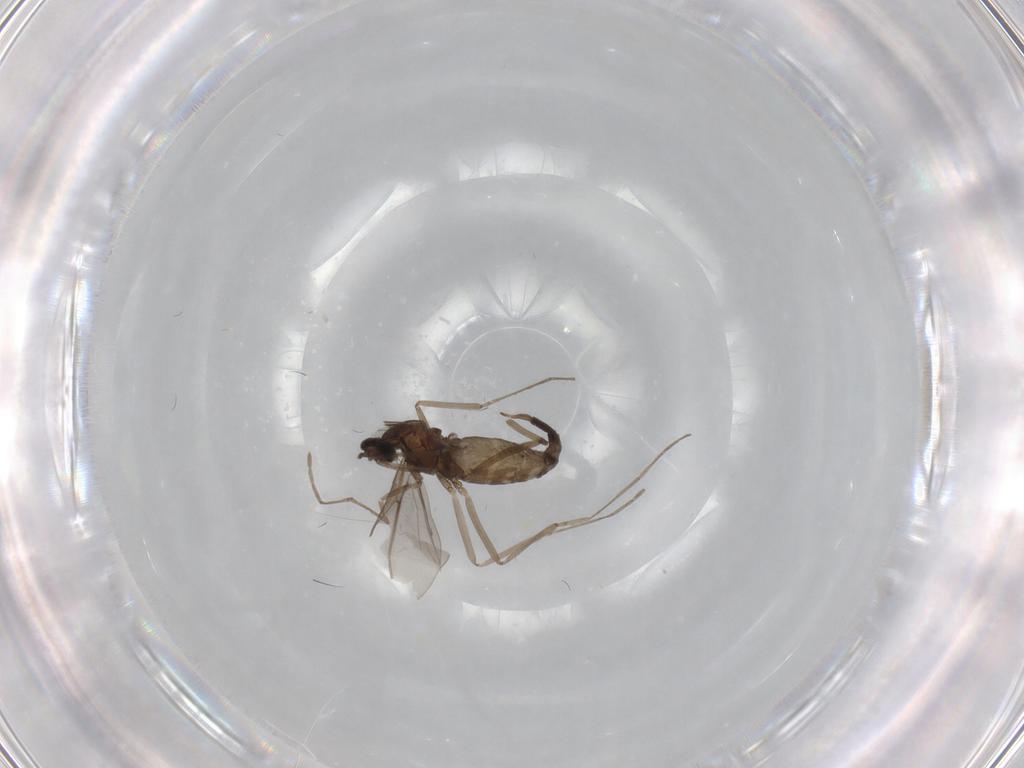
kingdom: Animalia
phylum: Arthropoda
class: Insecta
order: Diptera
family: Cecidomyiidae
